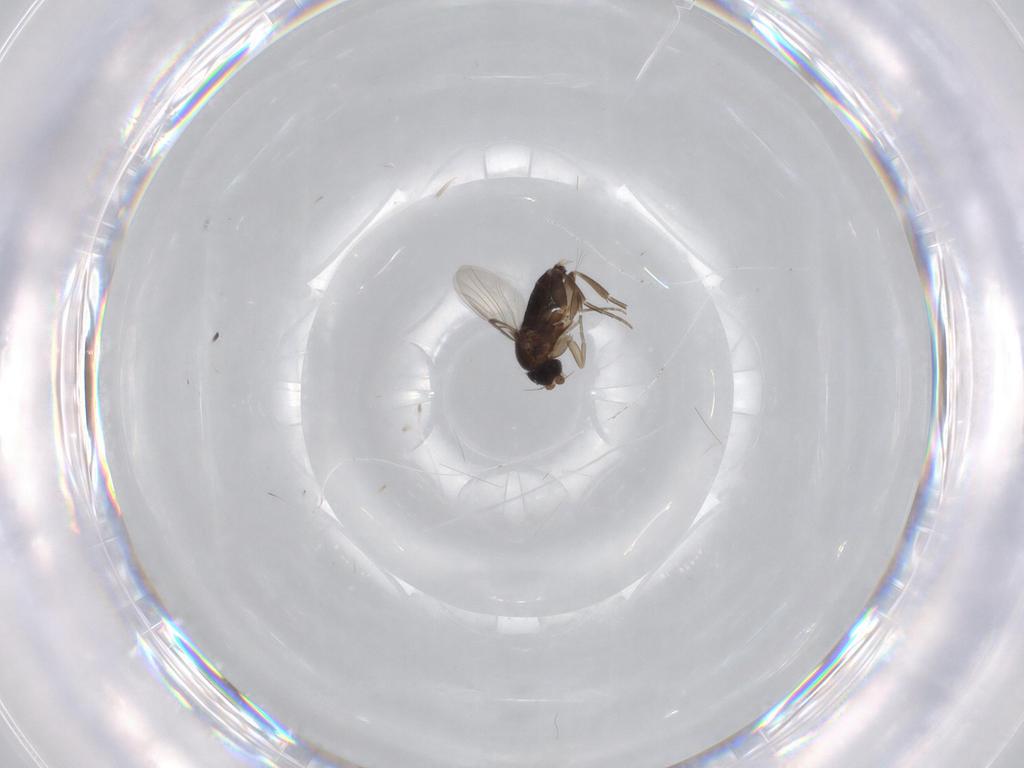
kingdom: Animalia
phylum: Arthropoda
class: Insecta
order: Diptera
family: Phoridae
